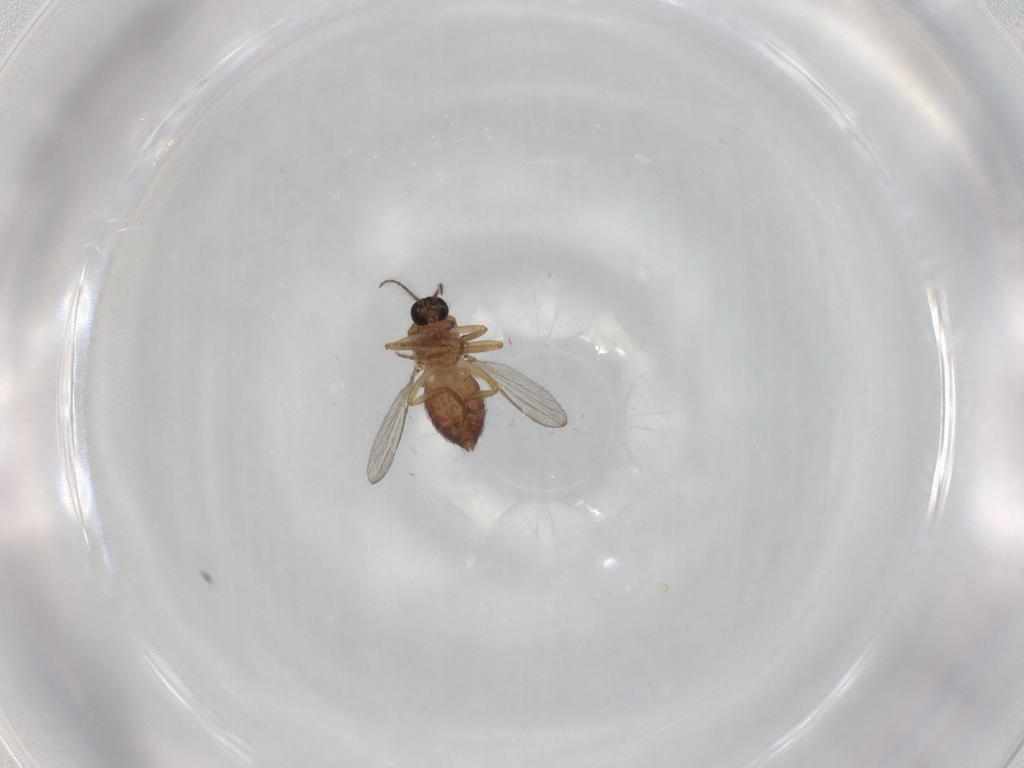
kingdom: Animalia
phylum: Arthropoda
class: Insecta
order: Diptera
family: Ceratopogonidae
